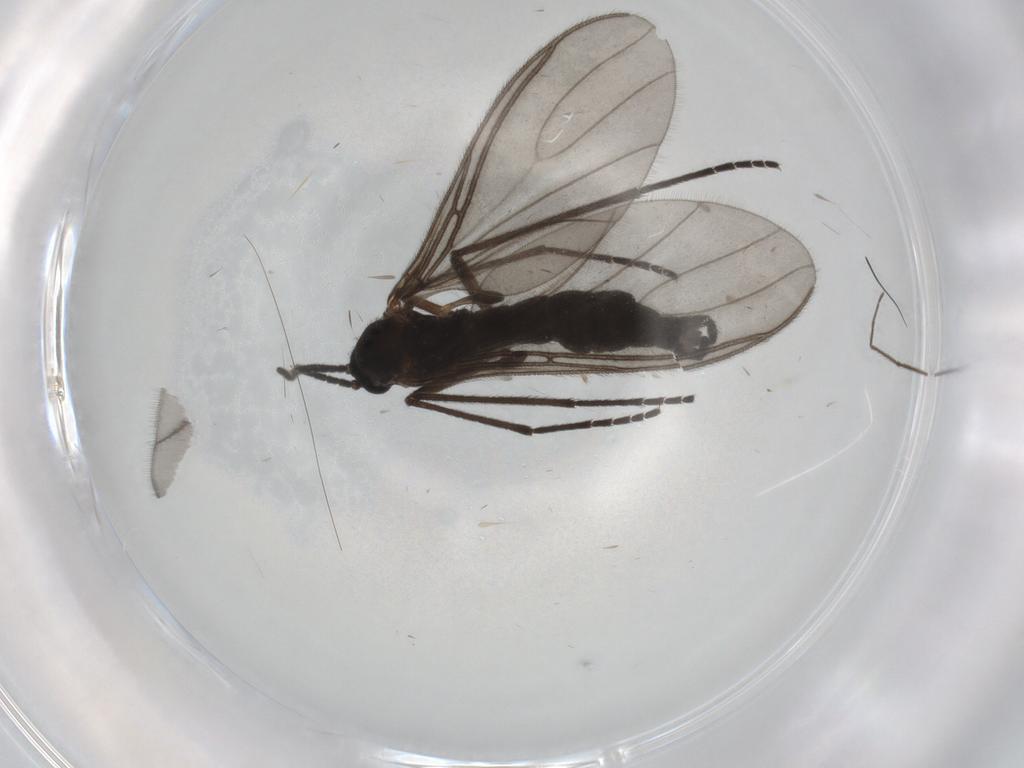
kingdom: Animalia
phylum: Arthropoda
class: Insecta
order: Diptera
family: Sciaridae
